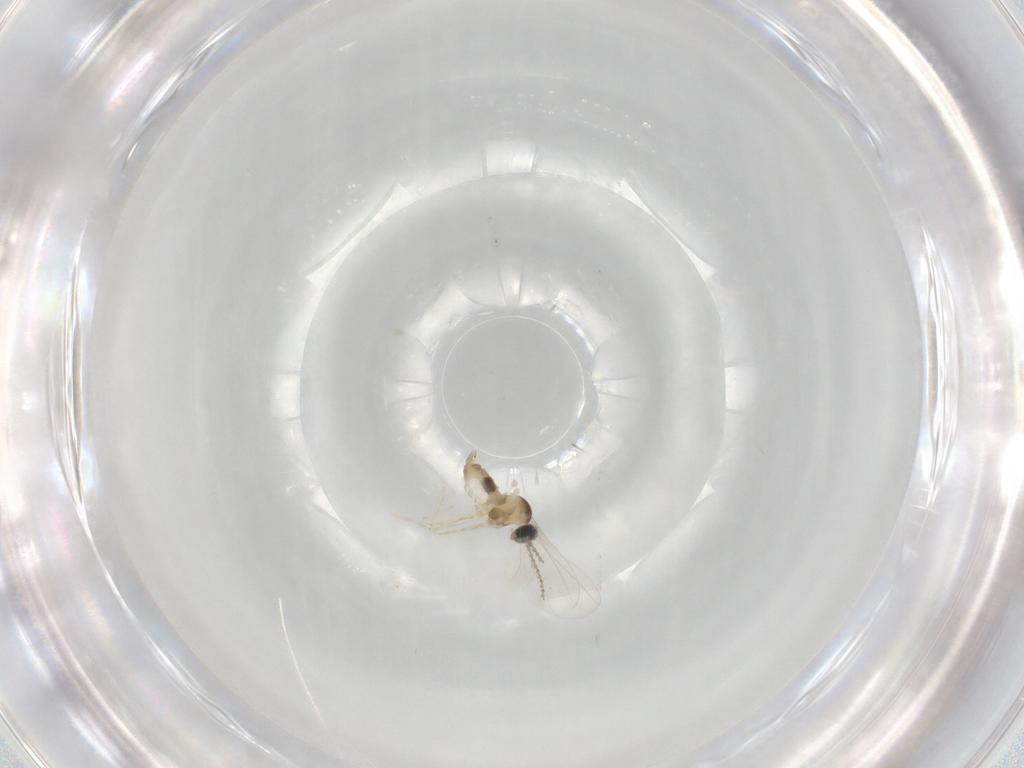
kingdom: Animalia
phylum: Arthropoda
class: Insecta
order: Diptera
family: Cecidomyiidae
